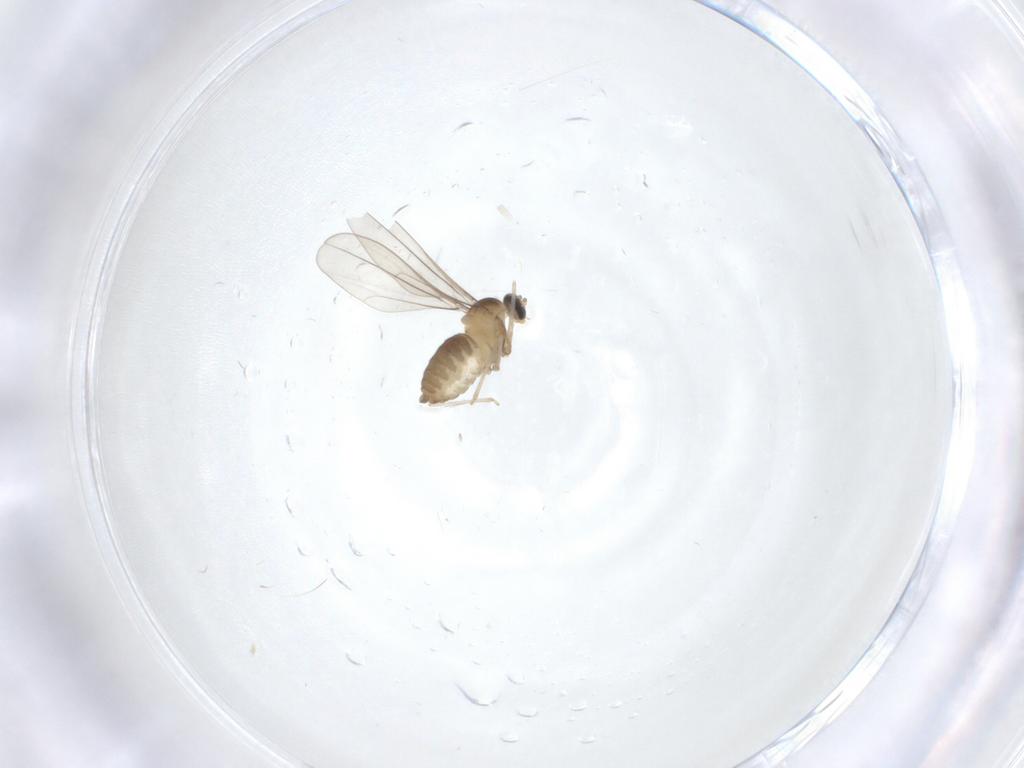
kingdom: Animalia
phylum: Arthropoda
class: Insecta
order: Diptera
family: Cecidomyiidae
